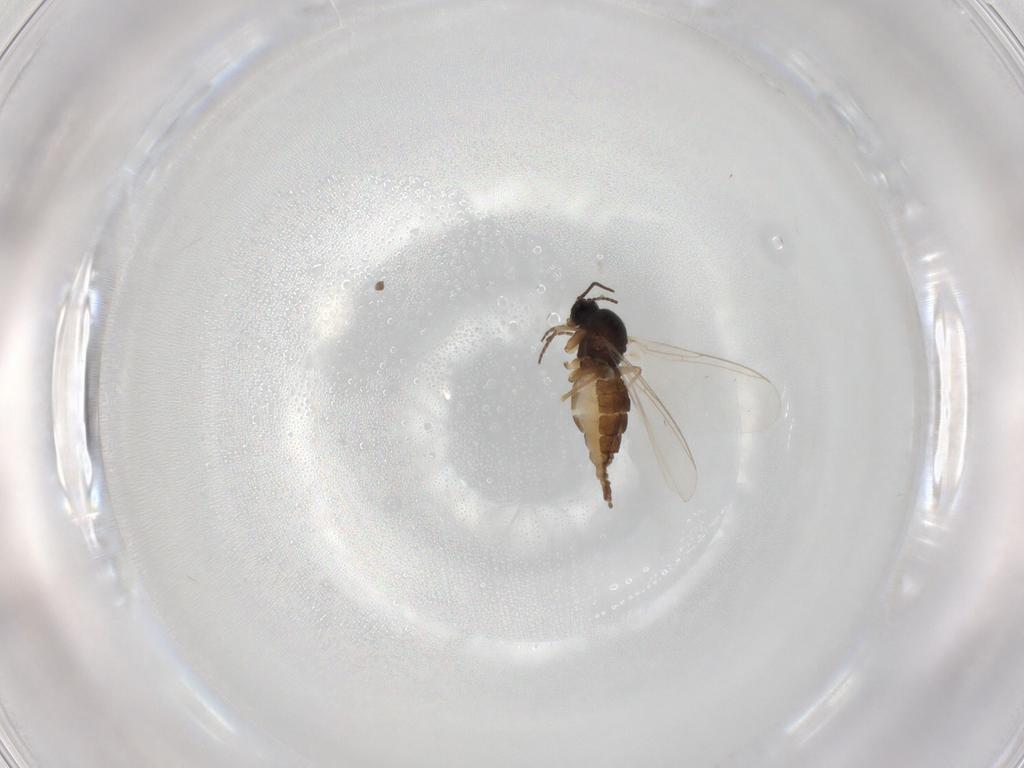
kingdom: Animalia
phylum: Arthropoda
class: Insecta
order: Diptera
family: Sciaridae
